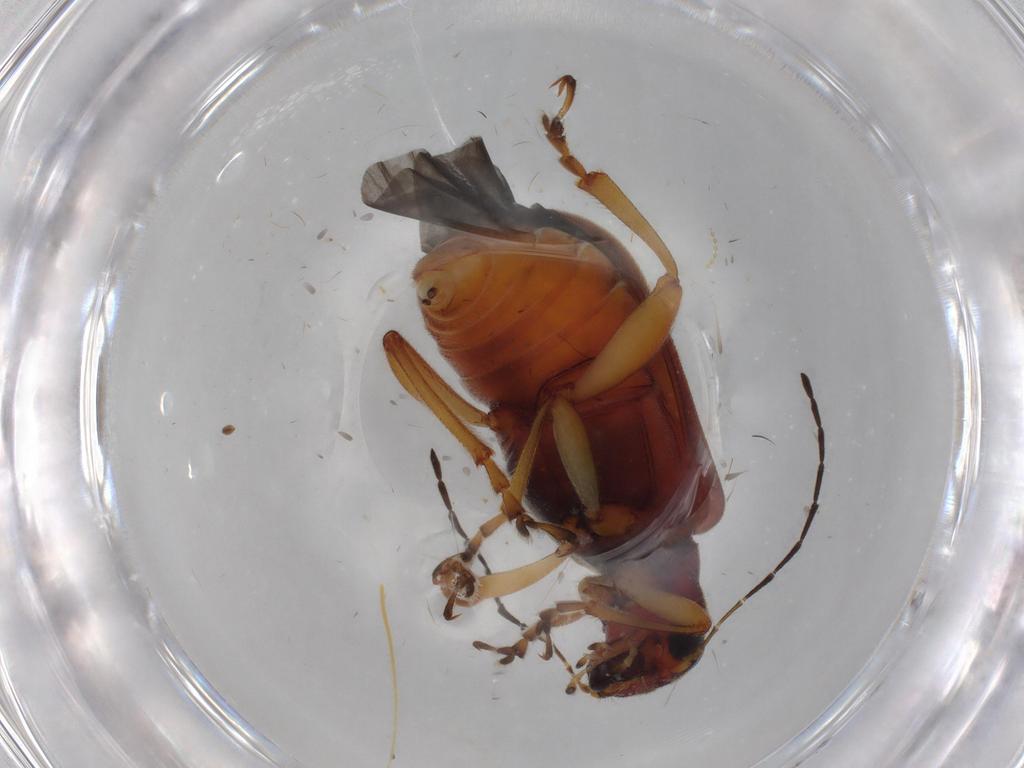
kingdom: Animalia
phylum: Arthropoda
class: Insecta
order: Coleoptera
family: Chrysomelidae
